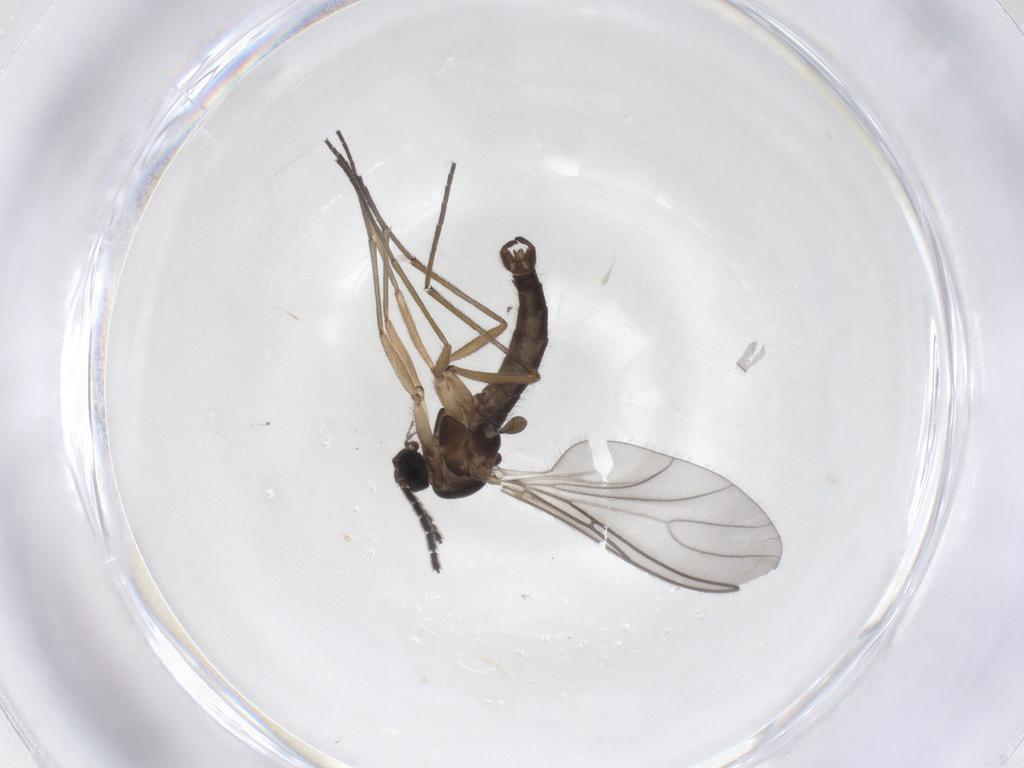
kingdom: Animalia
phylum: Arthropoda
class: Insecta
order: Diptera
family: Sciaridae
